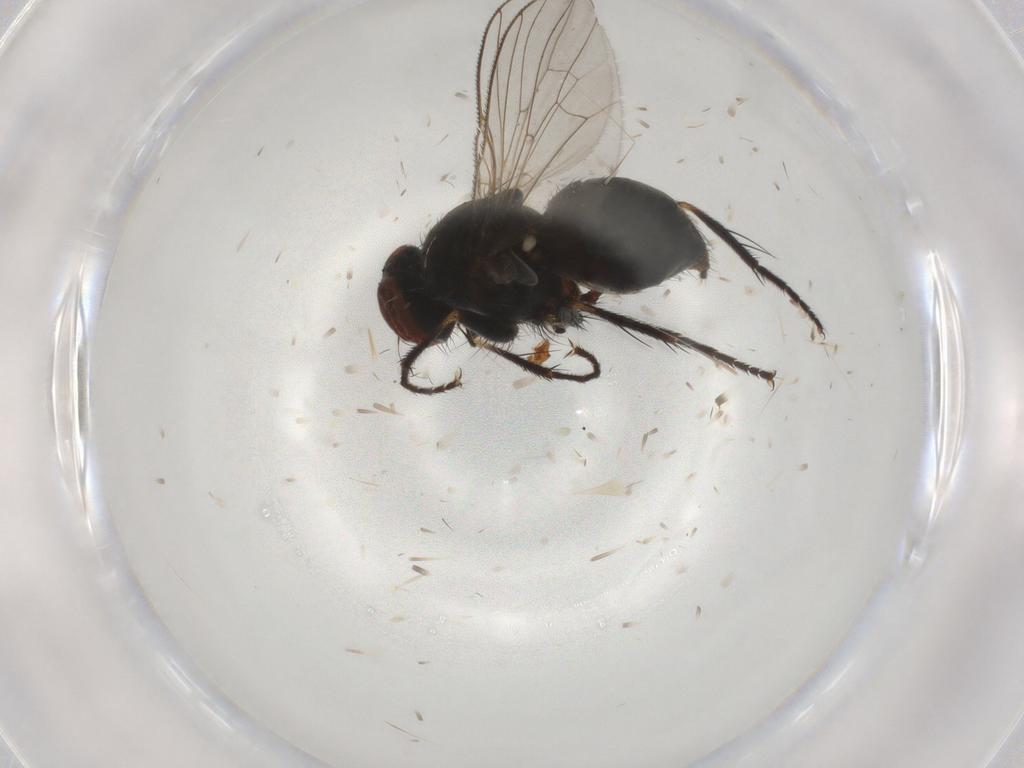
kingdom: Animalia
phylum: Arthropoda
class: Insecta
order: Diptera
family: Muscidae
